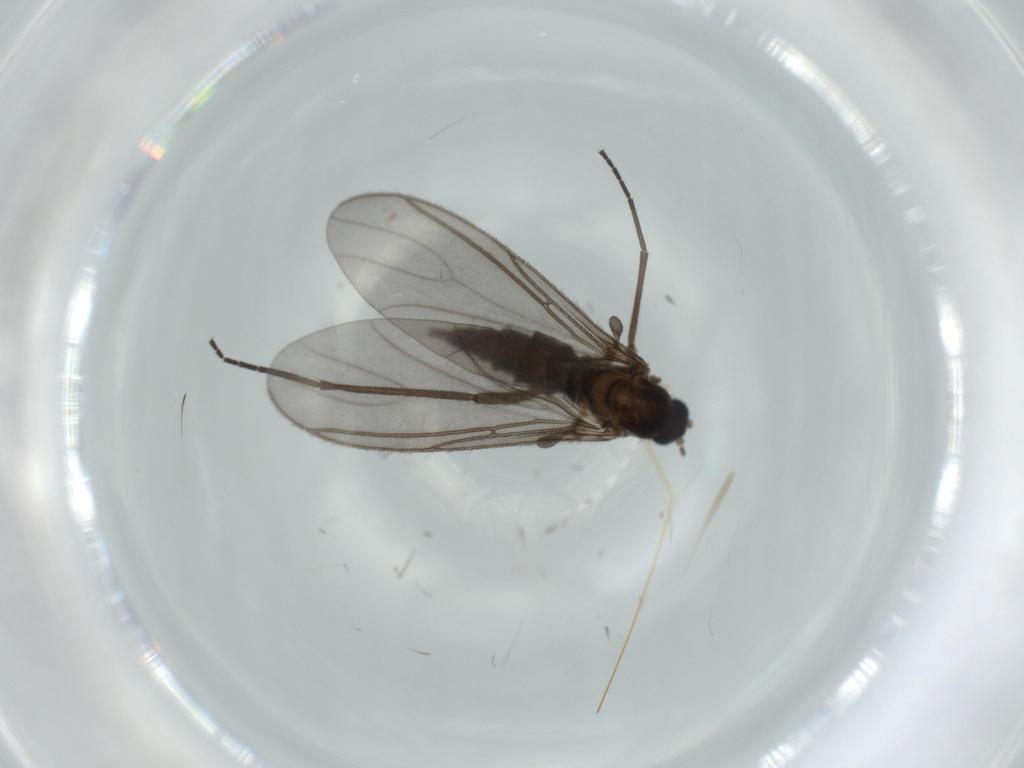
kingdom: Animalia
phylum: Arthropoda
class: Insecta
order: Diptera
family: Sciaridae
